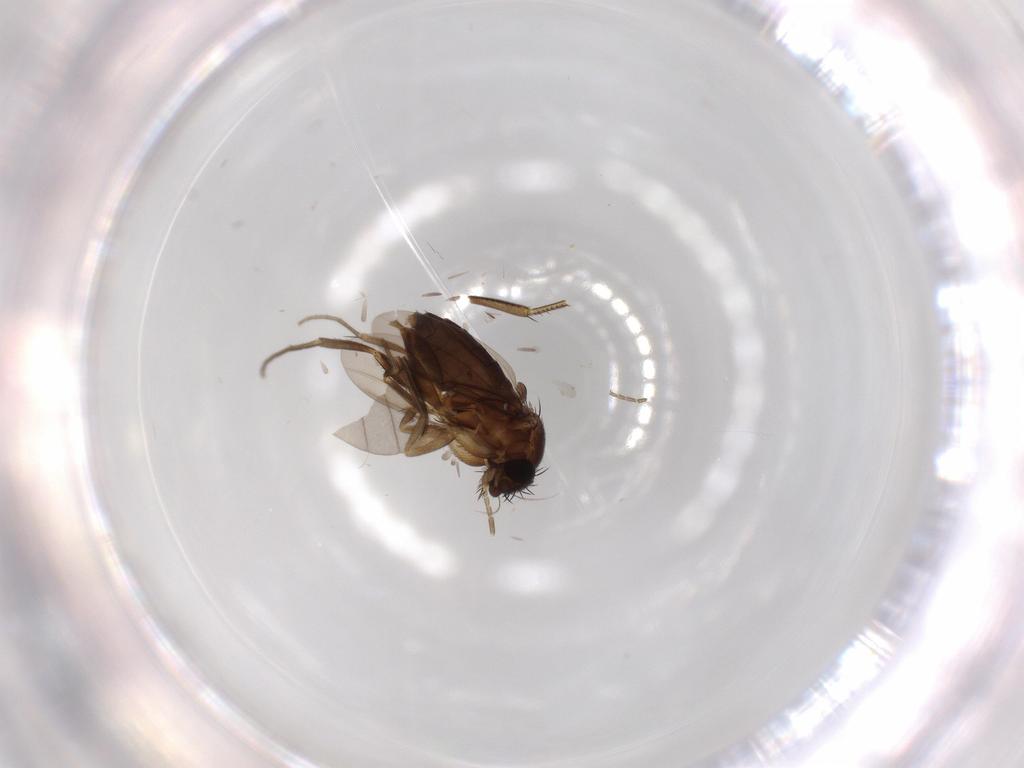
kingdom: Animalia
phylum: Arthropoda
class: Insecta
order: Diptera
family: Phoridae
